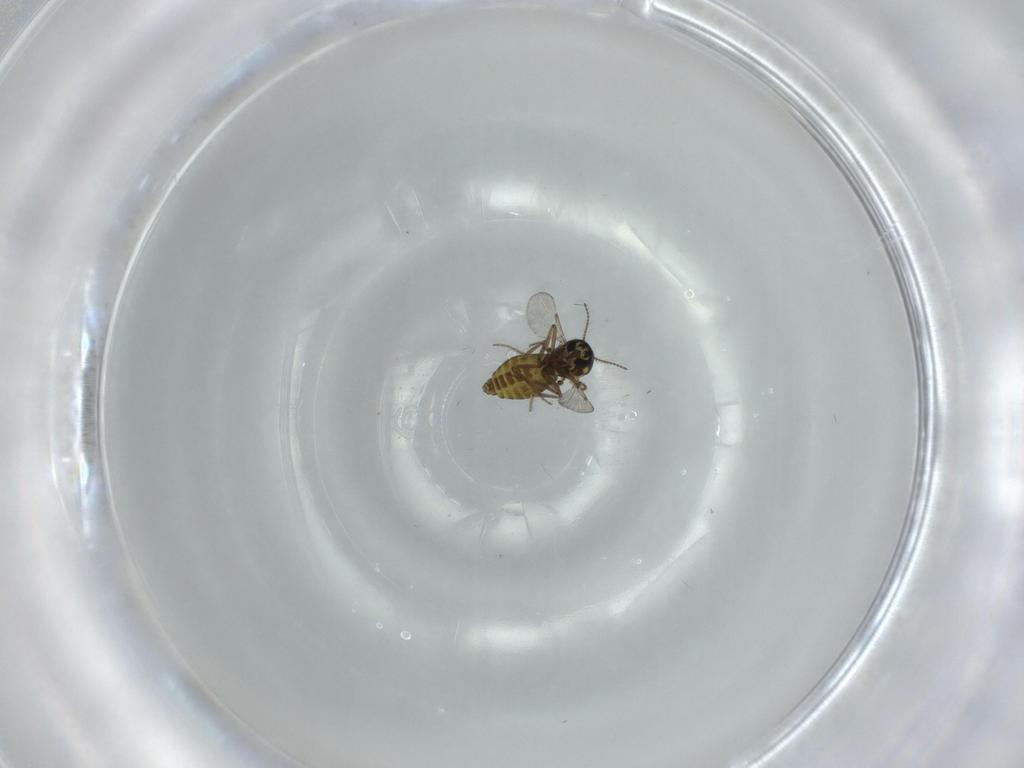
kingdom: Animalia
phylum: Arthropoda
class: Insecta
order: Diptera
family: Ceratopogonidae
